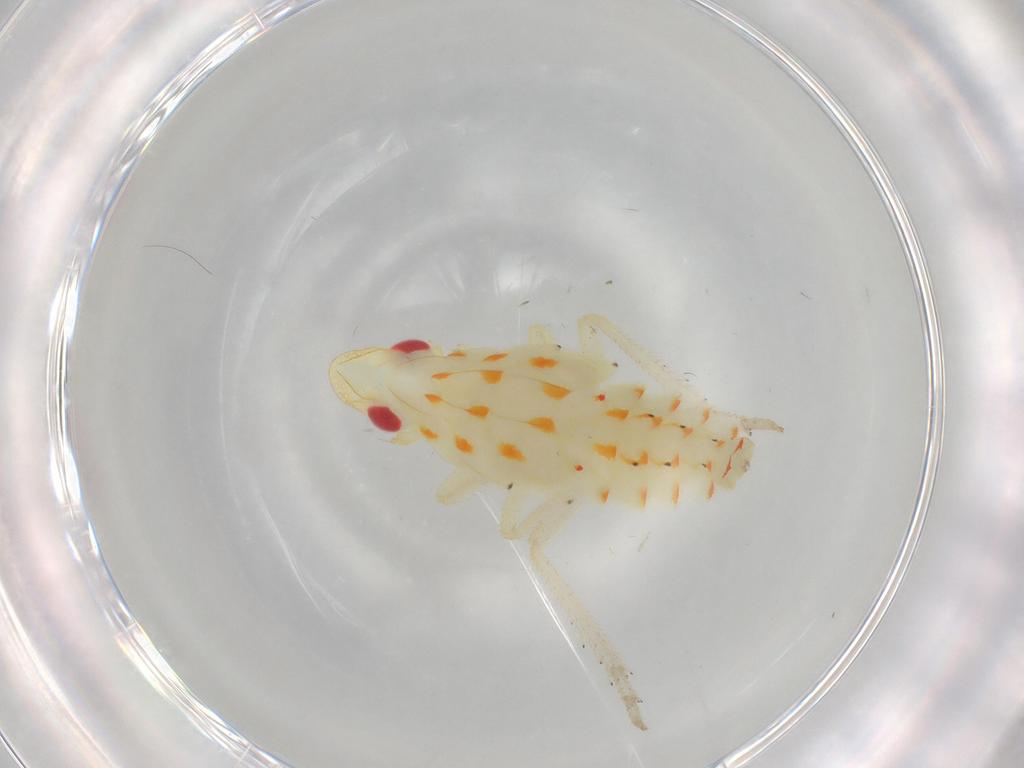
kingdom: Animalia
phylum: Arthropoda
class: Insecta
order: Hemiptera
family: Tropiduchidae
